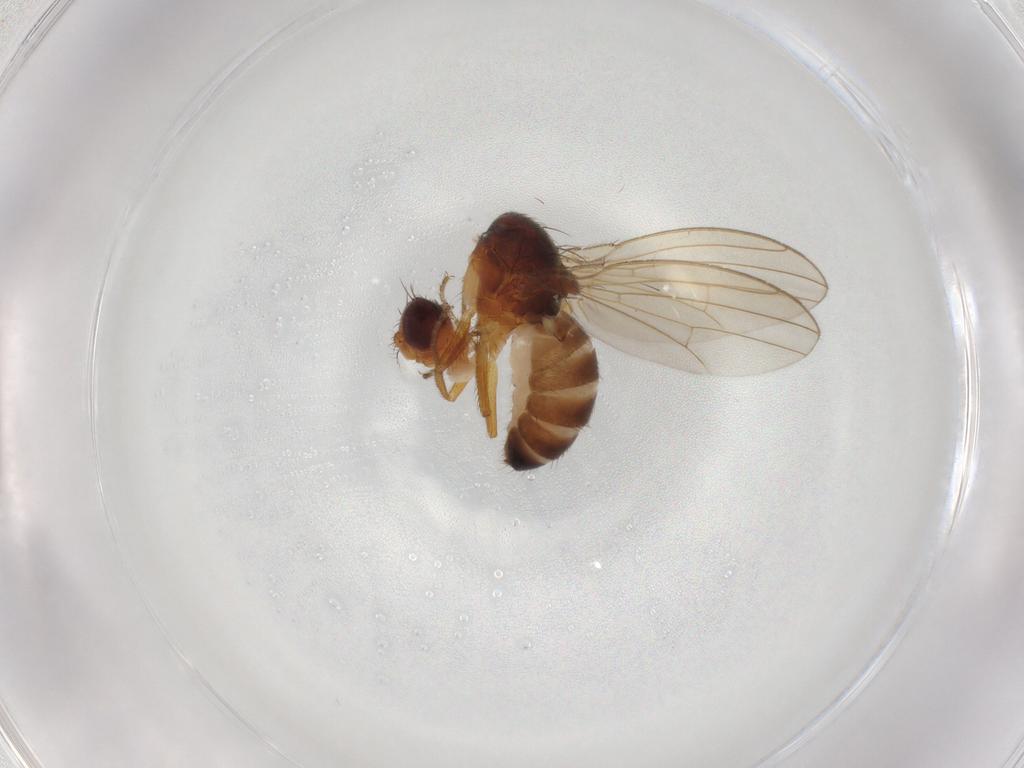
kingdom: Animalia
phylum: Arthropoda
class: Insecta
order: Diptera
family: Drosophilidae
